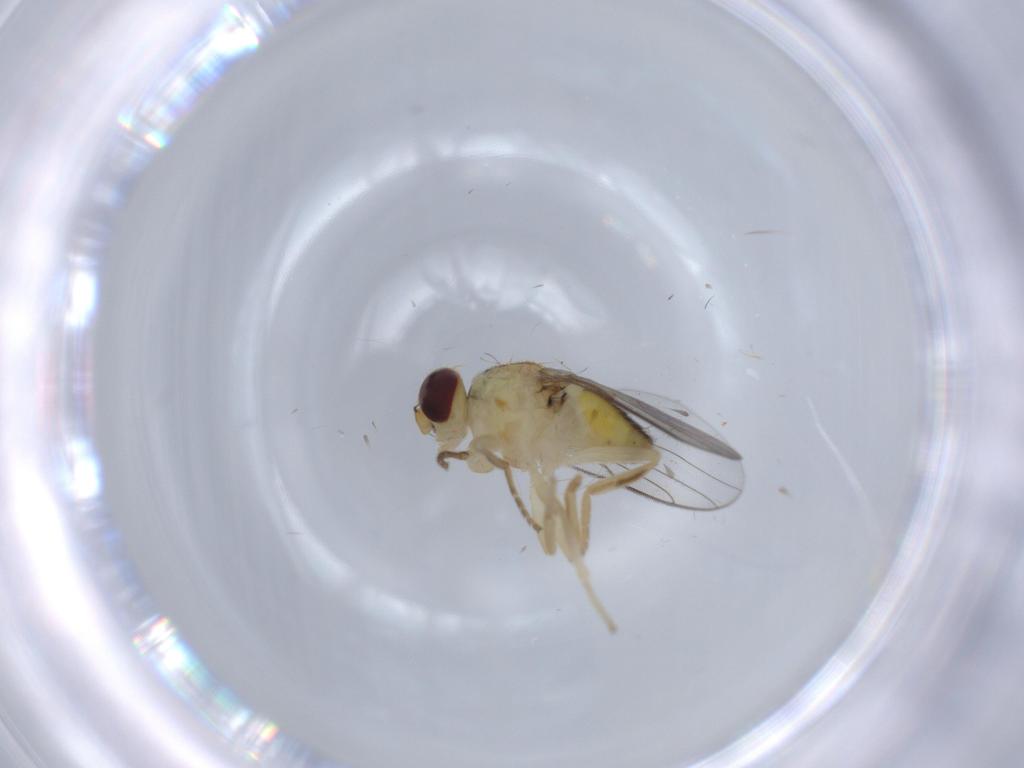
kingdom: Animalia
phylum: Arthropoda
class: Insecta
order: Diptera
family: Chloropidae
